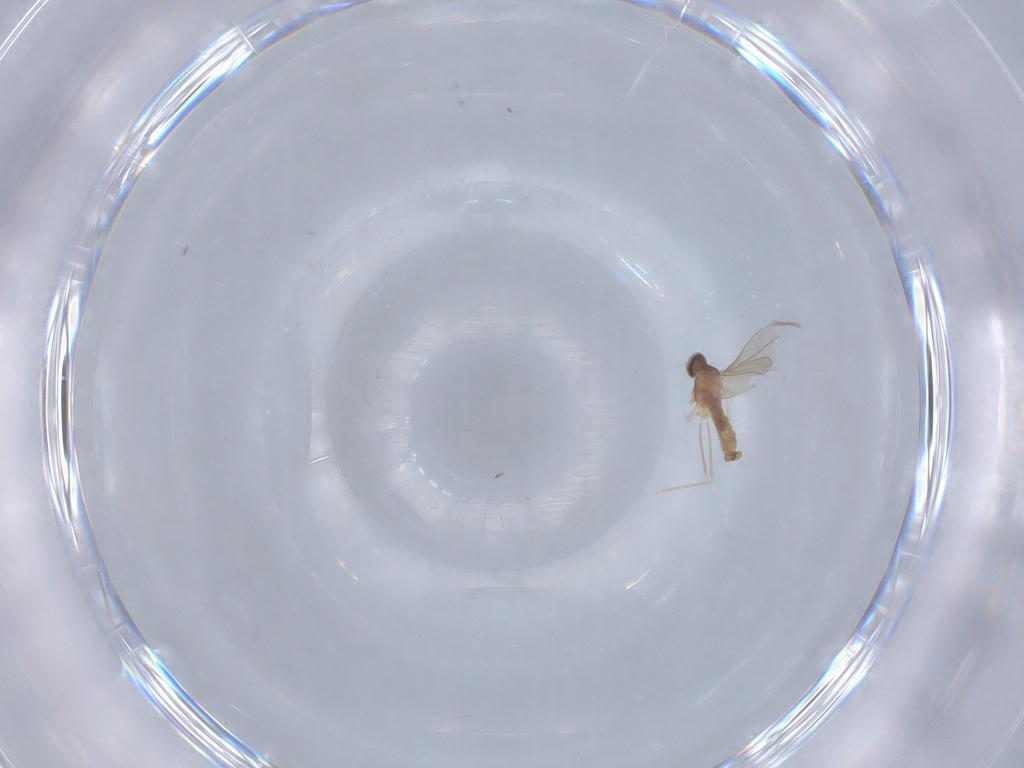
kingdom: Animalia
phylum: Arthropoda
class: Insecta
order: Diptera
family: Cecidomyiidae
